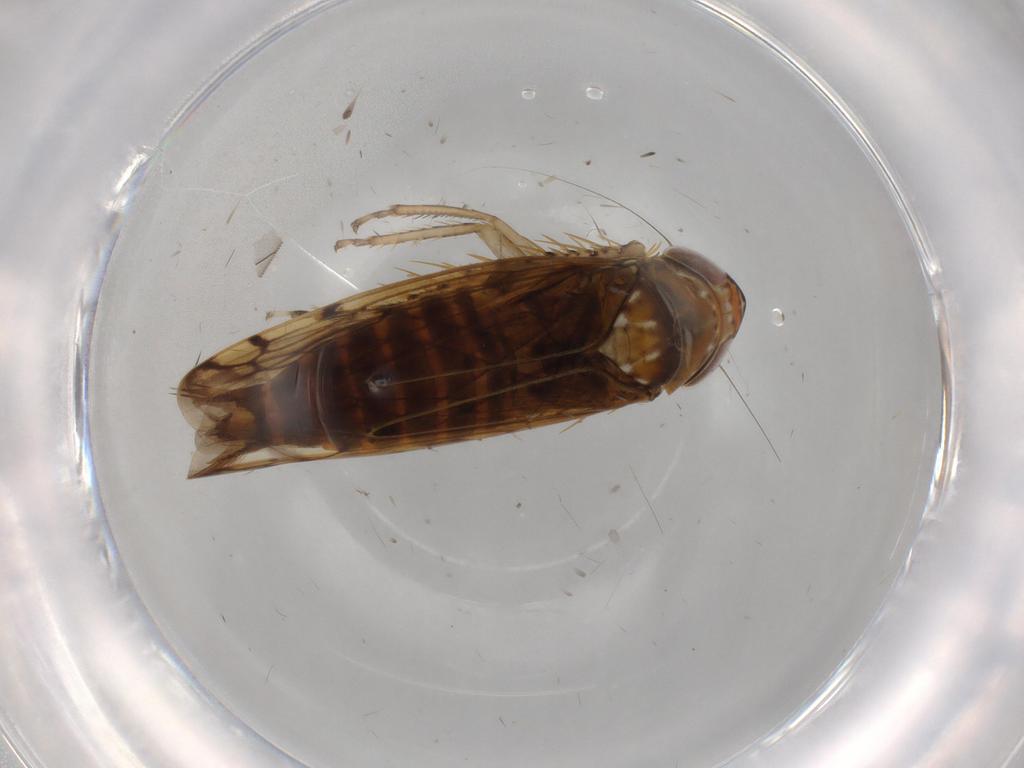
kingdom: Animalia
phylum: Arthropoda
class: Insecta
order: Hemiptera
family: Cicadellidae
